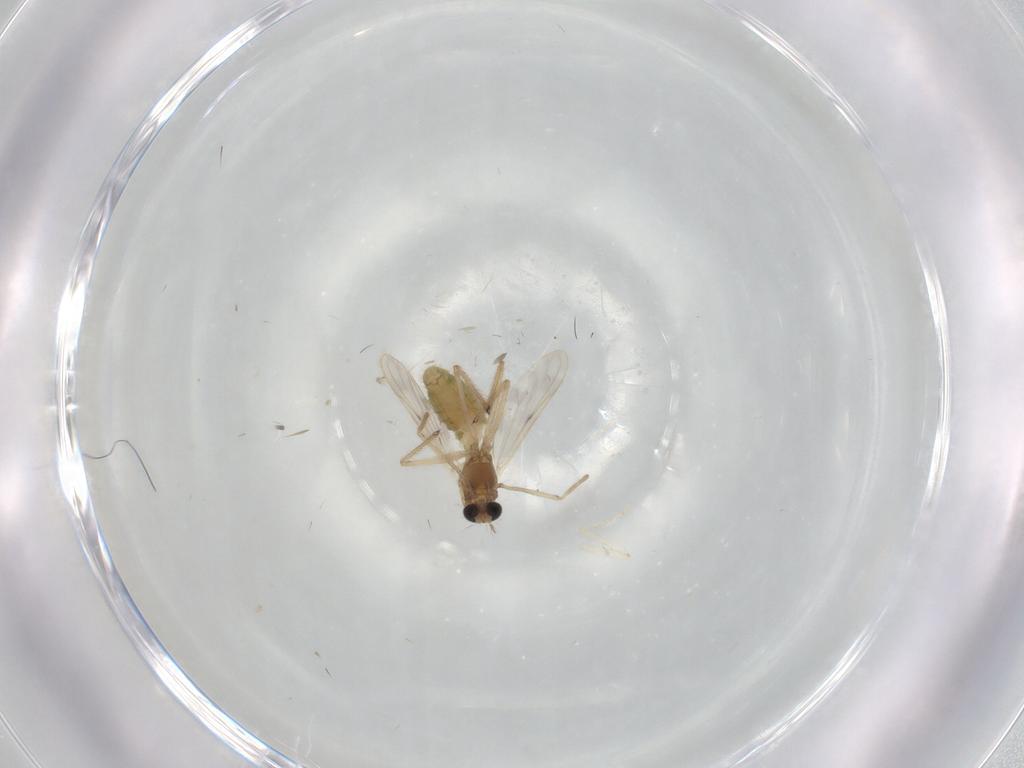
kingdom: Animalia
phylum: Arthropoda
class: Insecta
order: Diptera
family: Chironomidae
